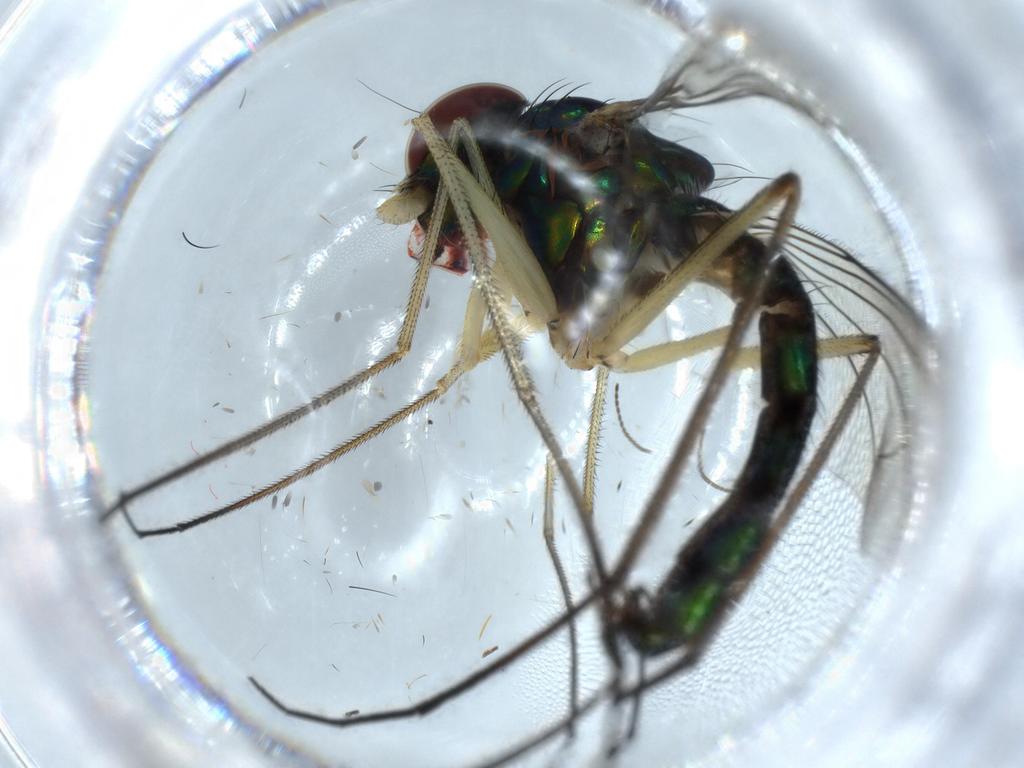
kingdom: Animalia
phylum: Arthropoda
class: Insecta
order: Diptera
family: Dolichopodidae
